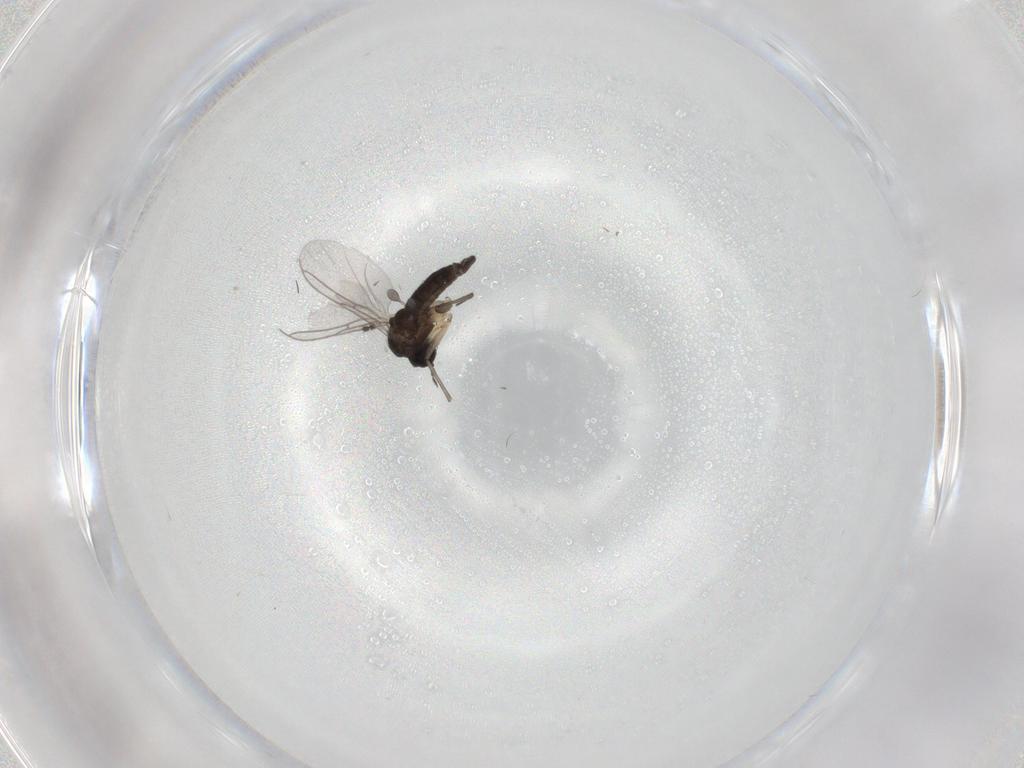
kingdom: Animalia
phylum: Arthropoda
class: Insecta
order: Diptera
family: Sciaridae
